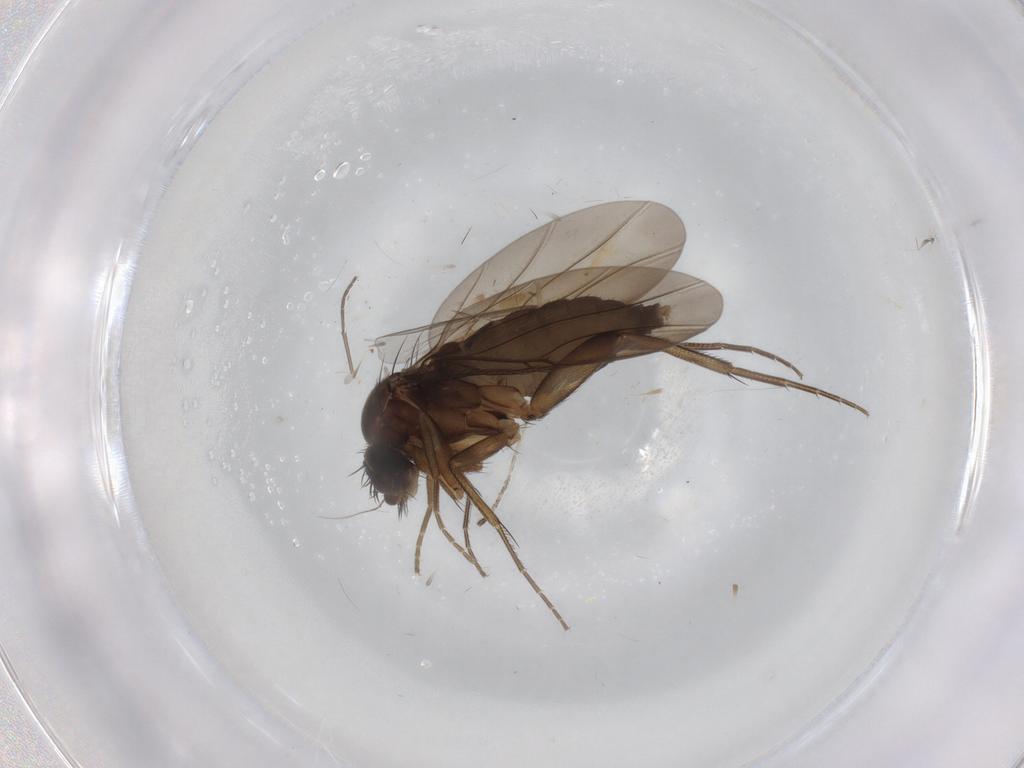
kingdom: Animalia
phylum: Arthropoda
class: Insecta
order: Diptera
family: Phoridae
